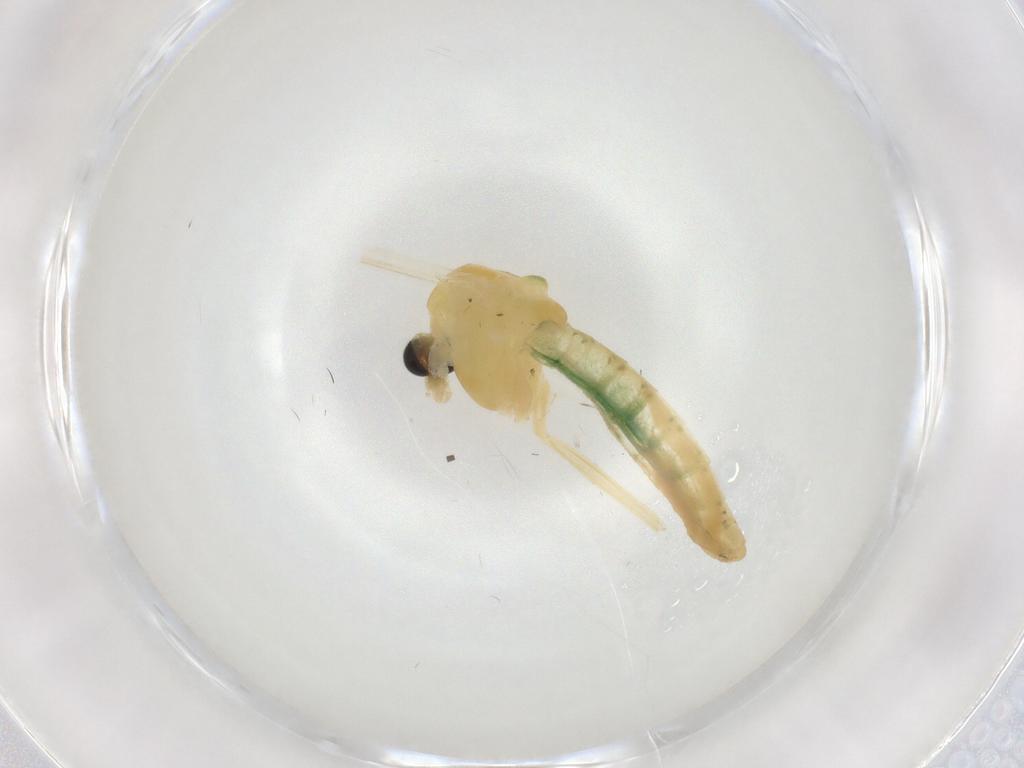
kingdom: Animalia
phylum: Arthropoda
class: Insecta
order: Diptera
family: Chironomidae
